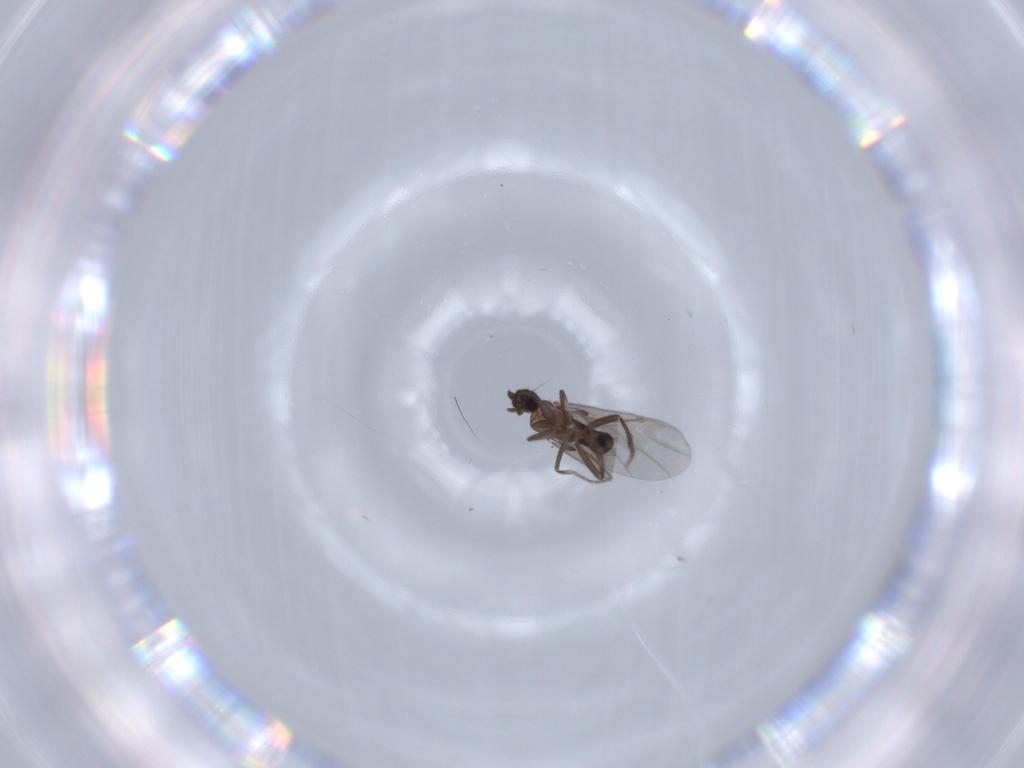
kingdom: Animalia
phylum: Arthropoda
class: Insecta
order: Diptera
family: Phoridae
